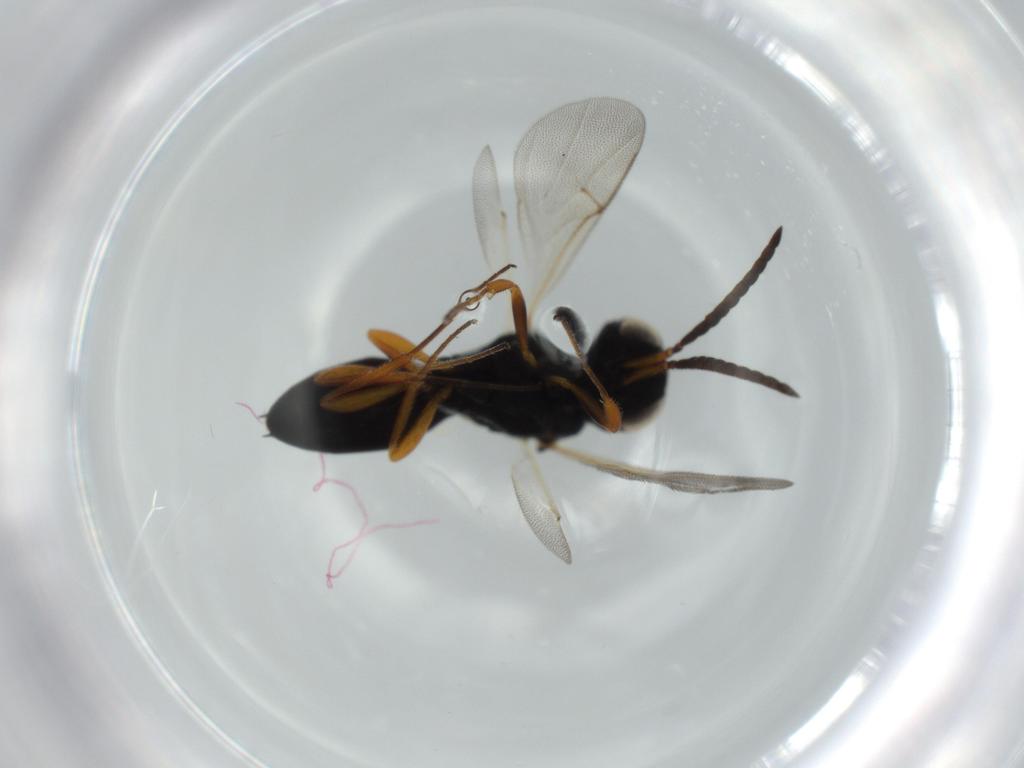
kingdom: Animalia
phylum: Arthropoda
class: Insecta
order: Hymenoptera
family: Scelionidae
